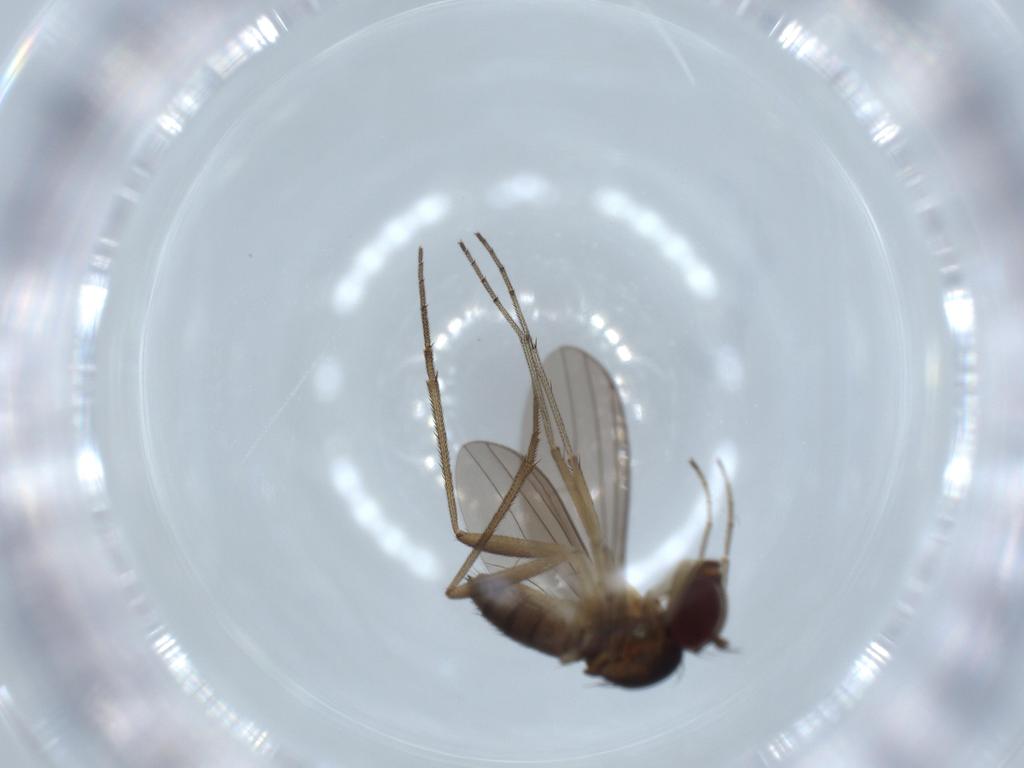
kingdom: Animalia
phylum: Arthropoda
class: Insecta
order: Diptera
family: Dolichopodidae
